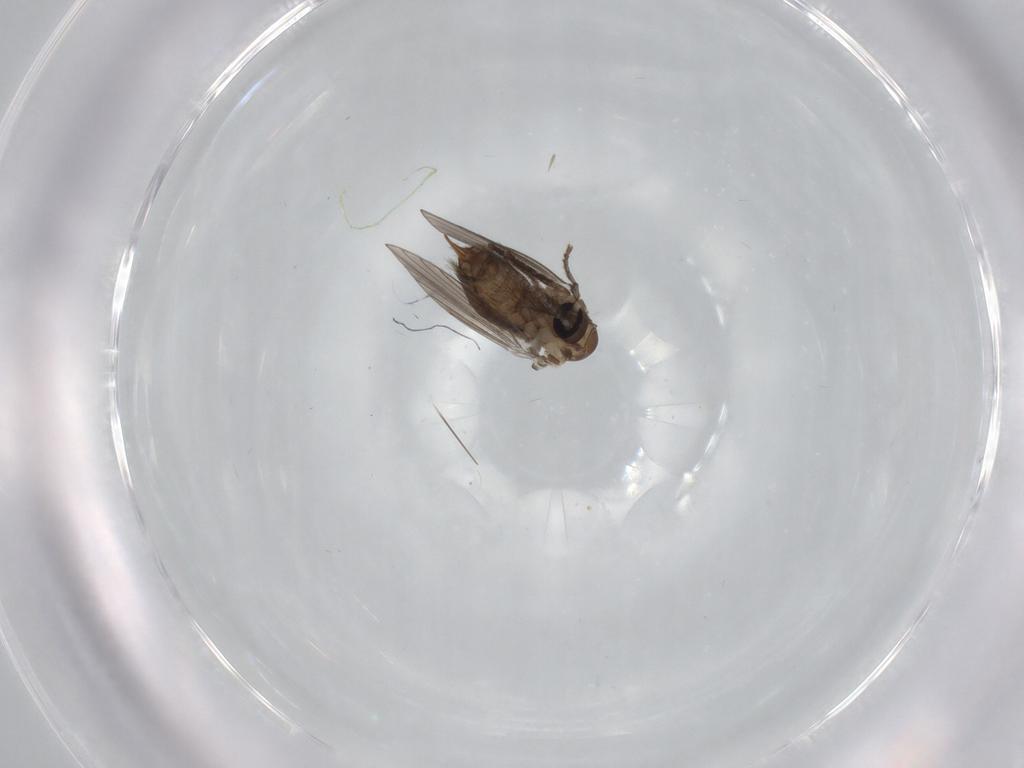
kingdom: Animalia
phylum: Arthropoda
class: Insecta
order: Diptera
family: Psychodidae
